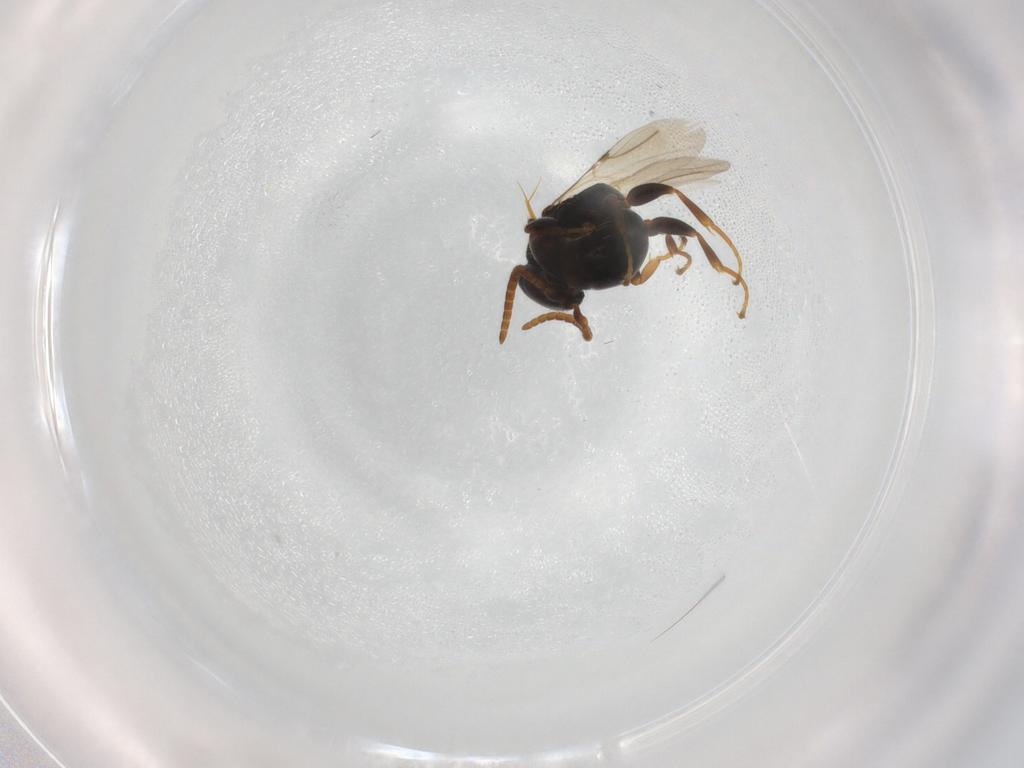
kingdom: Animalia
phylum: Arthropoda
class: Insecta
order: Hymenoptera
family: Bethylidae
